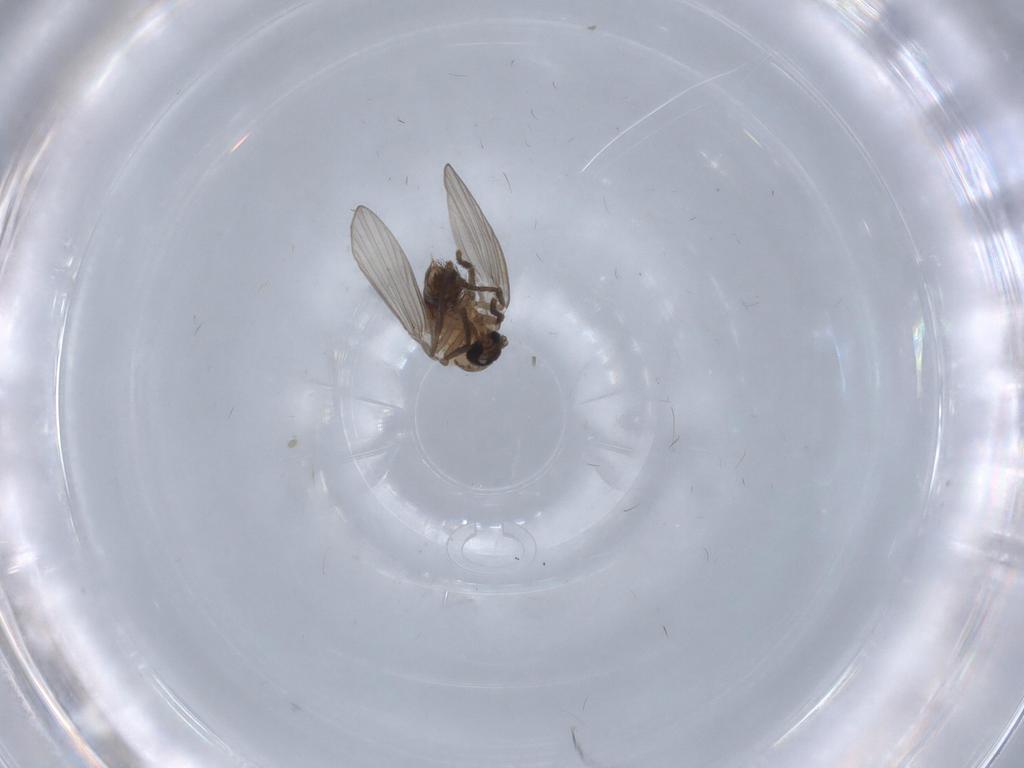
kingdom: Animalia
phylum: Arthropoda
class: Insecta
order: Diptera
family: Psychodidae
